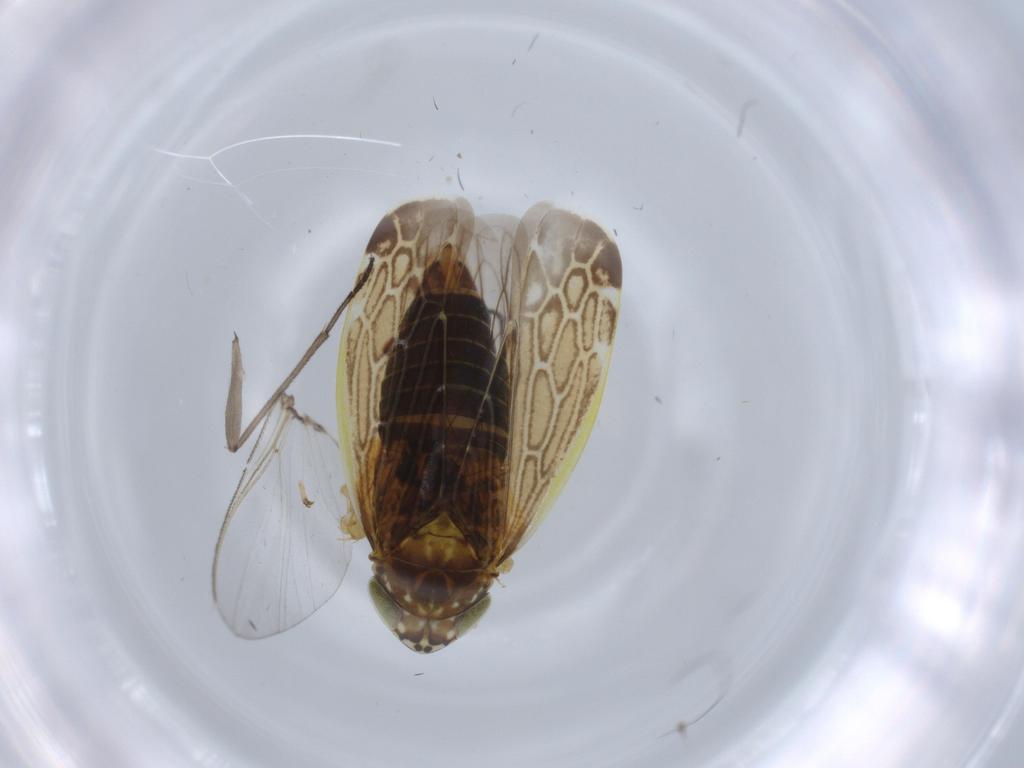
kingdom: Animalia
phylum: Arthropoda
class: Insecta
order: Hemiptera
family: Cicadellidae
